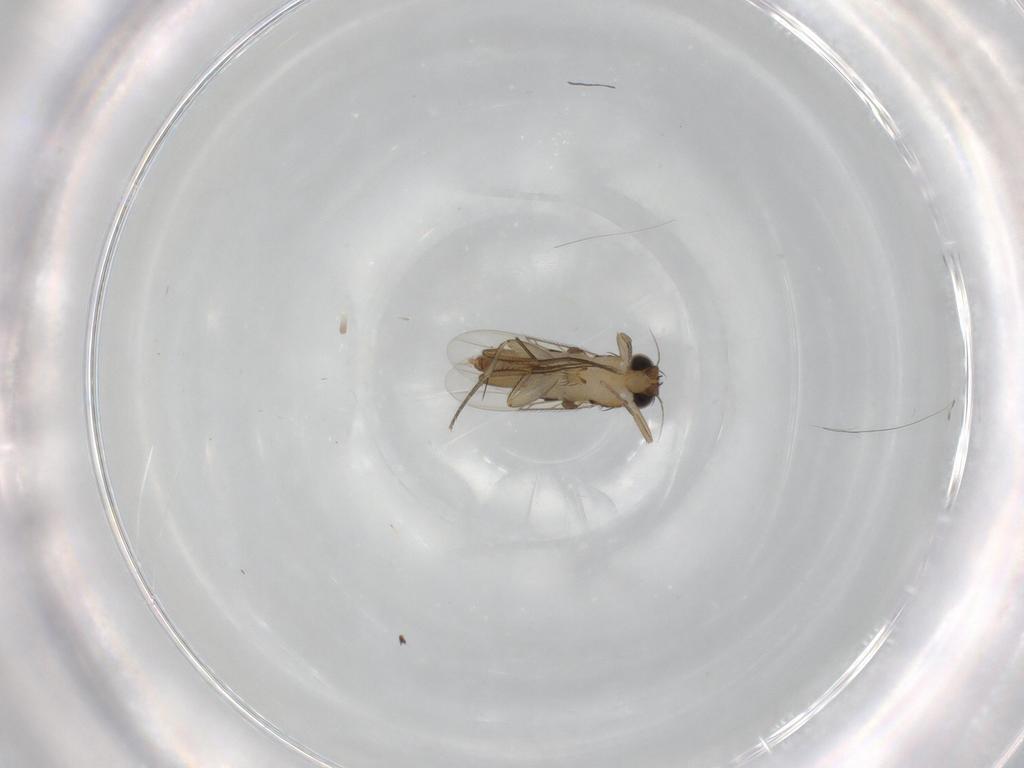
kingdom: Animalia
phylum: Arthropoda
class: Insecta
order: Diptera
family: Phoridae
